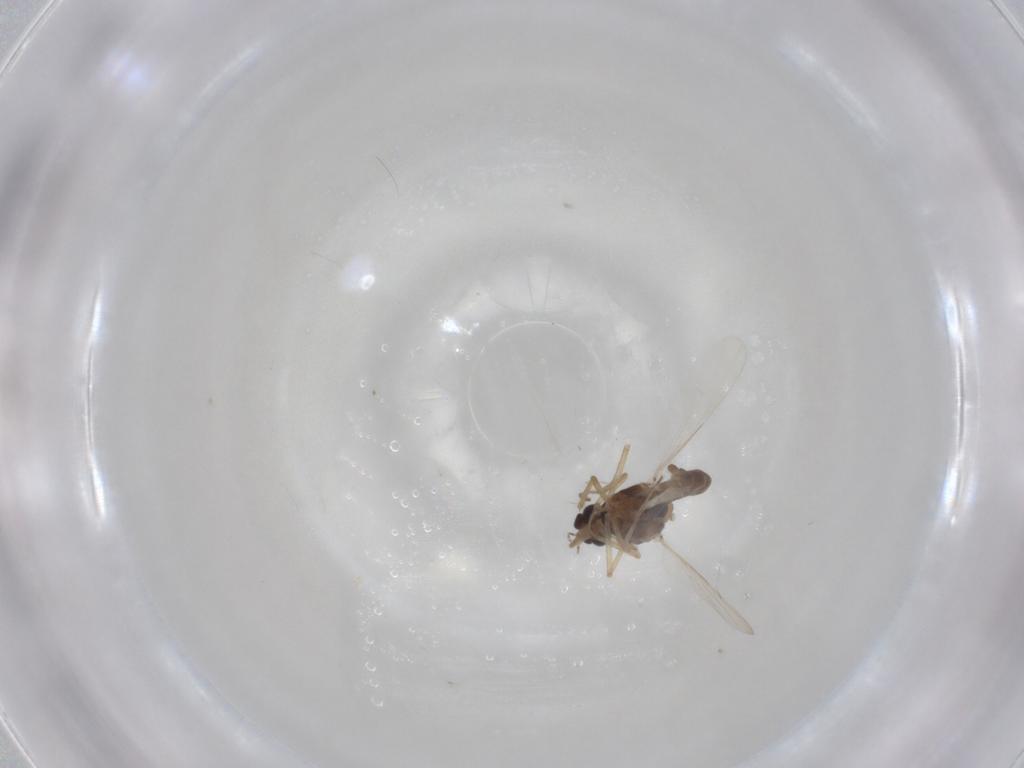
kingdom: Animalia
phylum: Arthropoda
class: Insecta
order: Diptera
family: Ceratopogonidae
